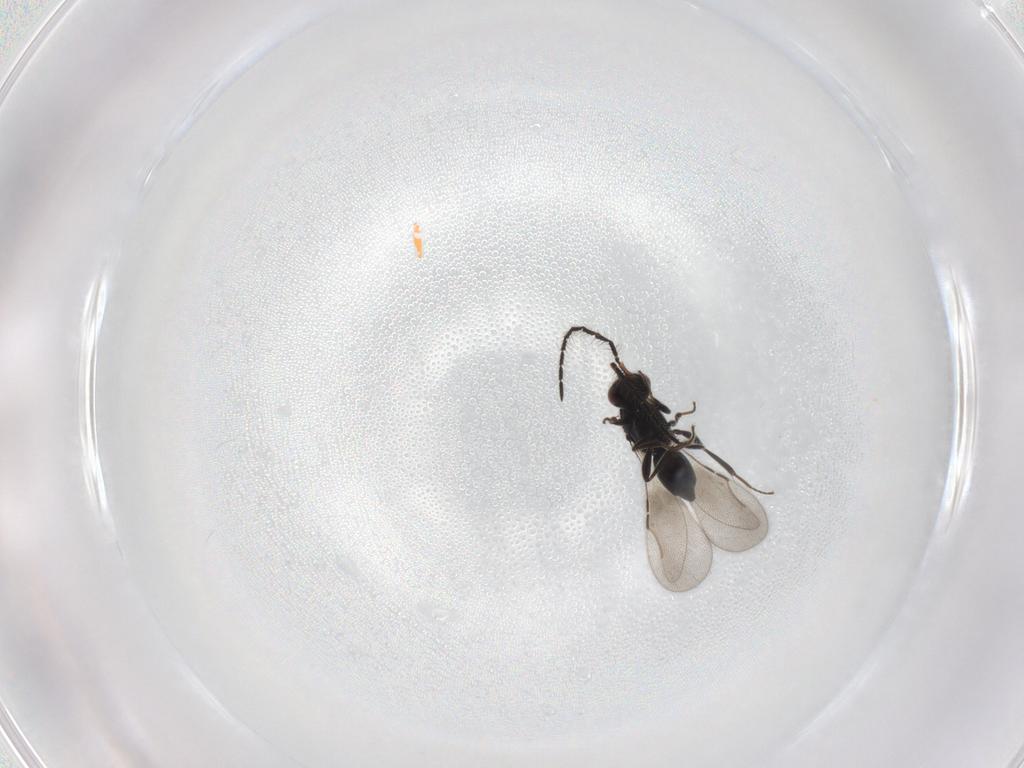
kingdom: Animalia
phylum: Arthropoda
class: Insecta
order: Hymenoptera
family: Ceraphronidae
